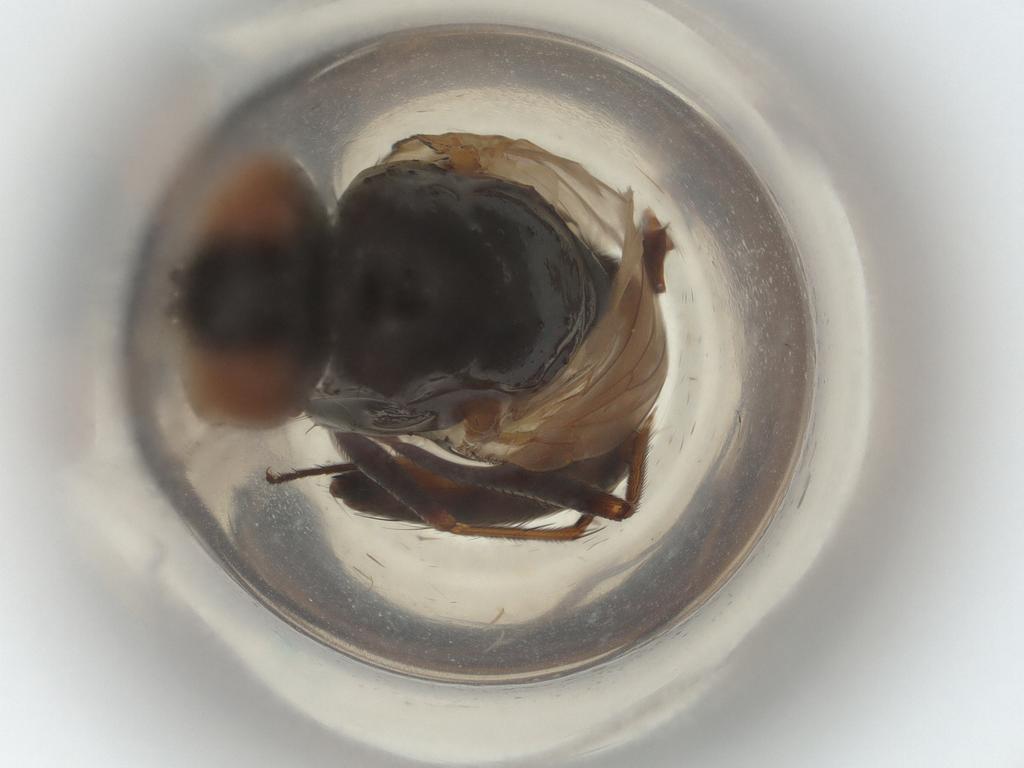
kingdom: Animalia
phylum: Arthropoda
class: Insecta
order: Diptera
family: Muscidae
